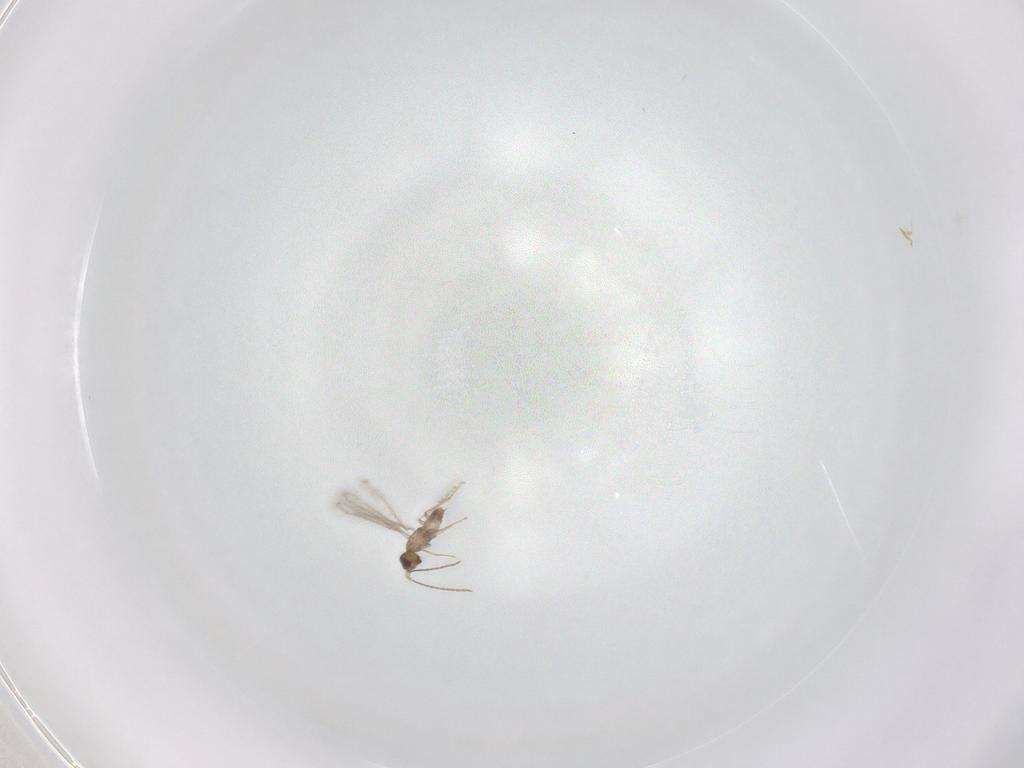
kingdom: Animalia
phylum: Arthropoda
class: Insecta
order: Hymenoptera
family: Mymaridae
